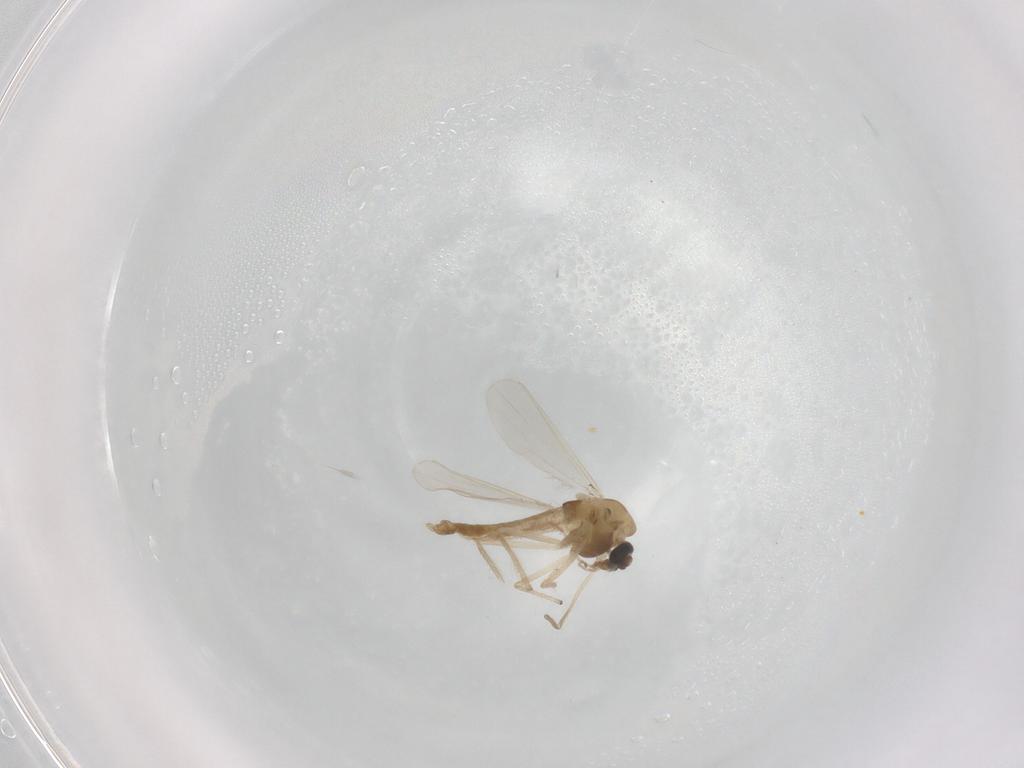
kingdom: Animalia
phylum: Arthropoda
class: Insecta
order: Diptera
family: Chironomidae
